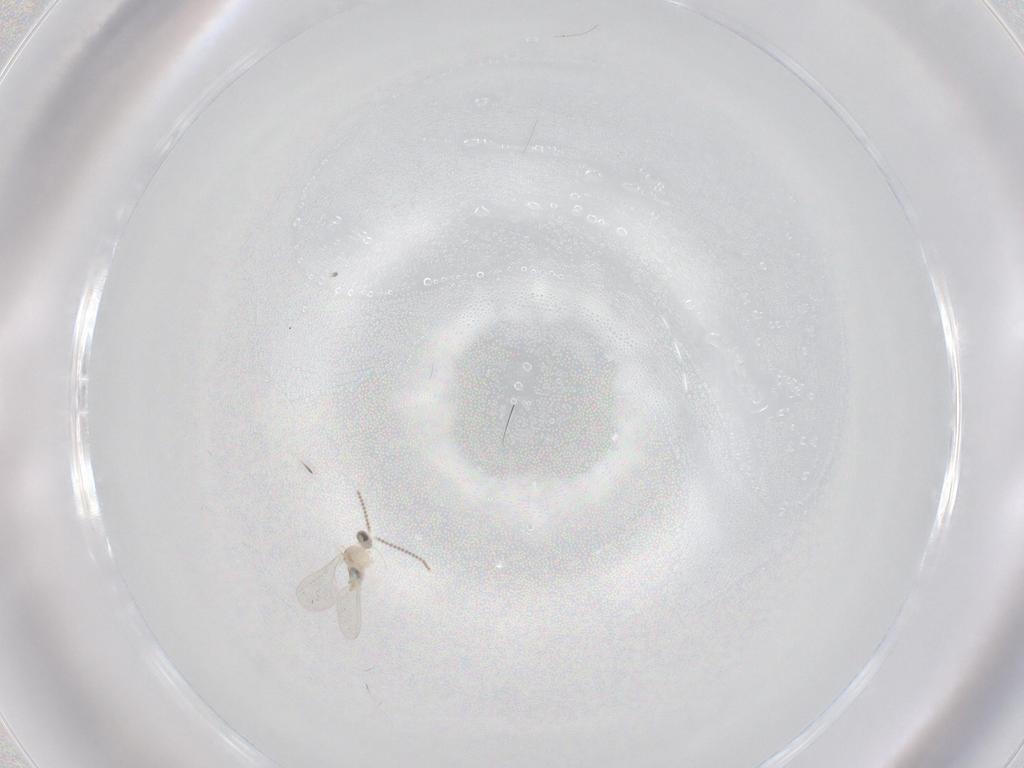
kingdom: Animalia
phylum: Arthropoda
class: Insecta
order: Diptera
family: Cecidomyiidae
